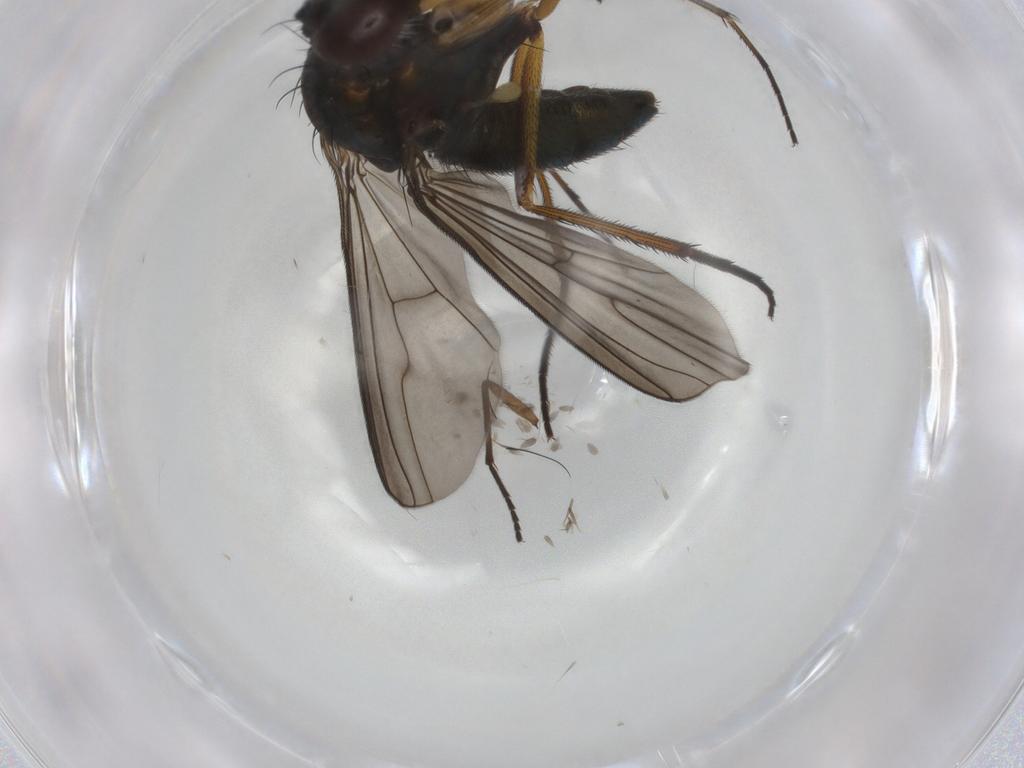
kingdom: Animalia
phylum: Arthropoda
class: Insecta
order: Diptera
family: Dolichopodidae
